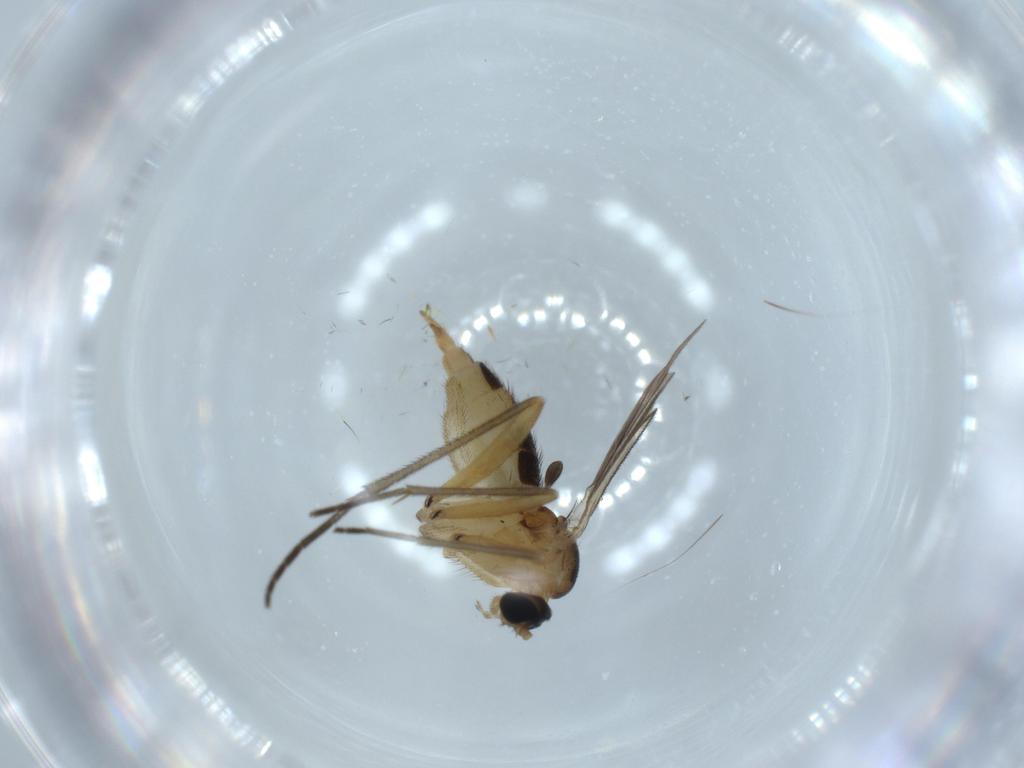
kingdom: Animalia
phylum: Arthropoda
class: Insecta
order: Diptera
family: Sciaridae
